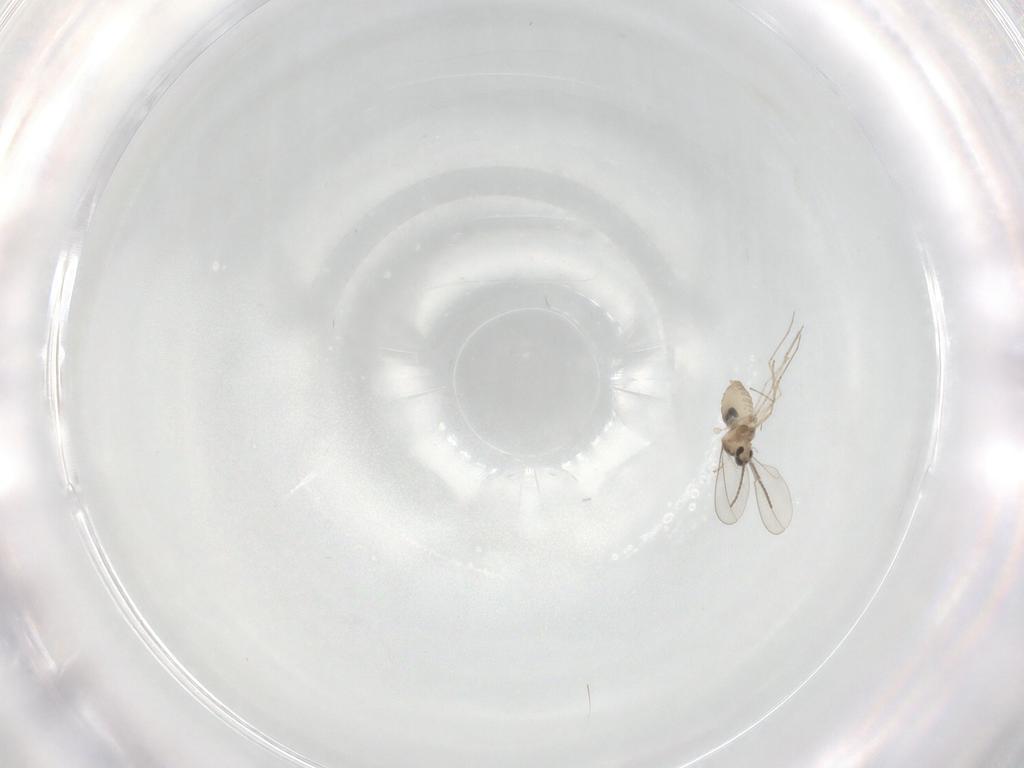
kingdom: Animalia
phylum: Arthropoda
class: Insecta
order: Diptera
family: Cecidomyiidae
